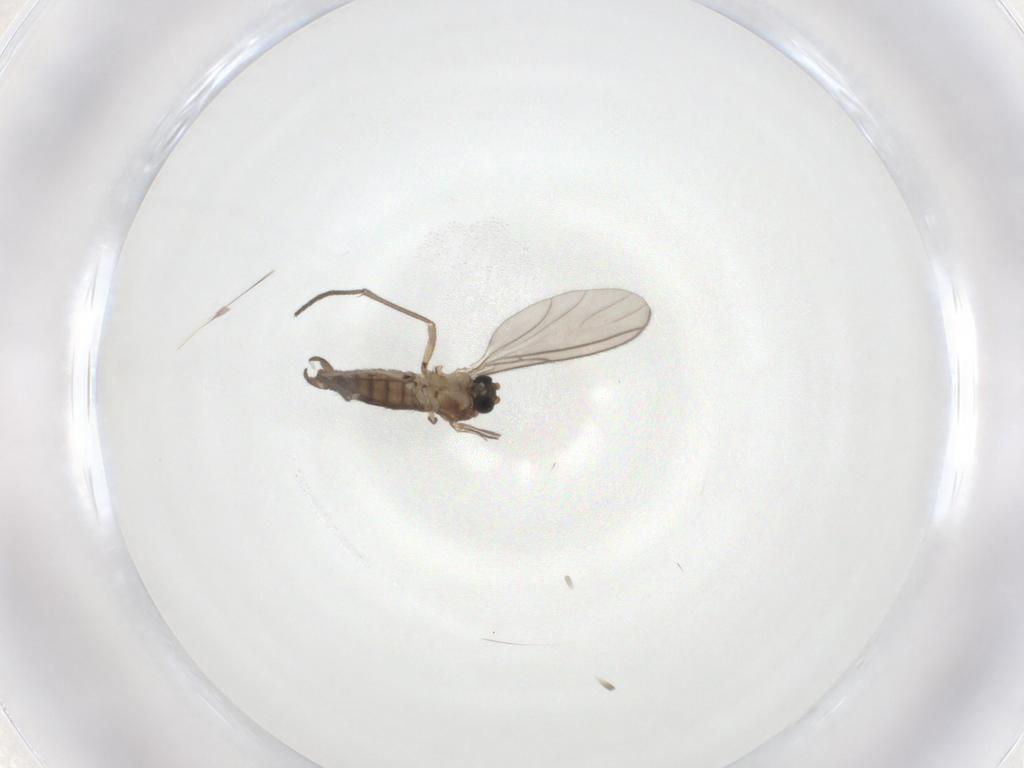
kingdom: Animalia
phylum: Arthropoda
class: Insecta
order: Diptera
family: Sciaridae
